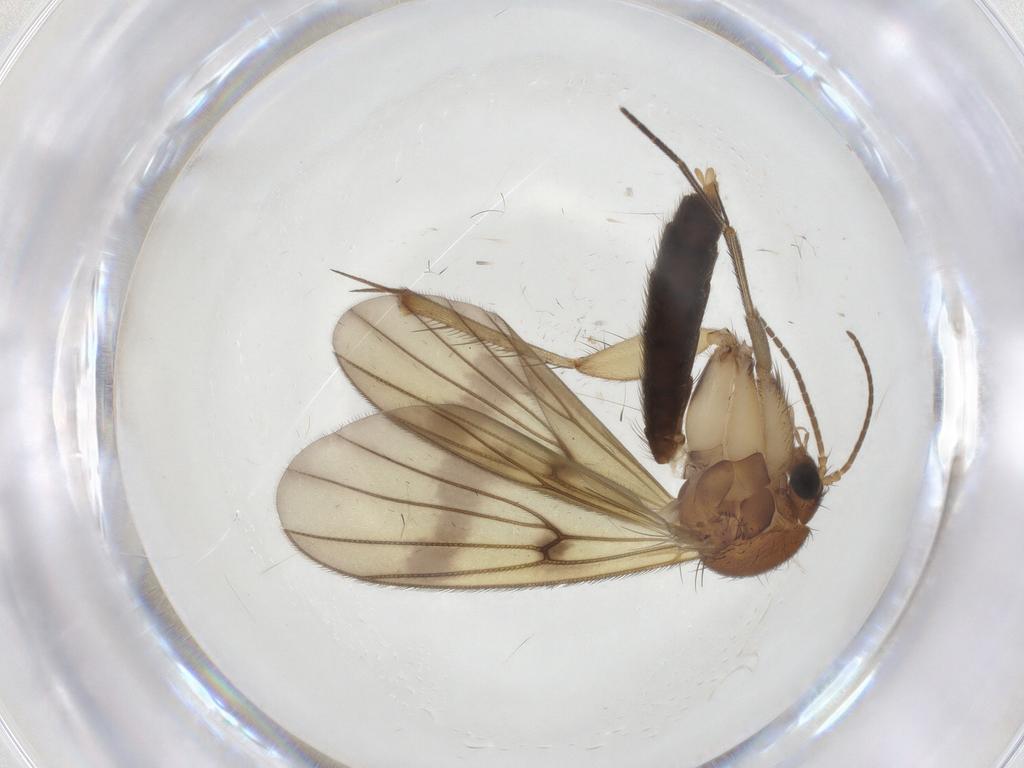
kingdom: Animalia
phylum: Arthropoda
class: Insecta
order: Diptera
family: Mycetophilidae
